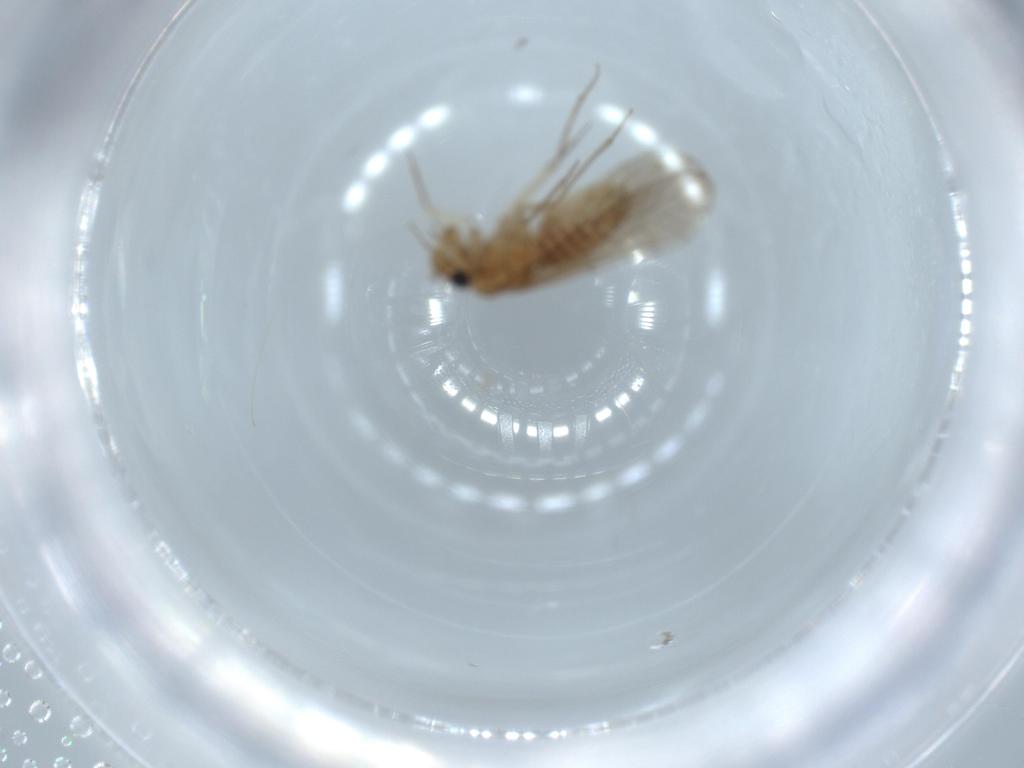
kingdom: Animalia
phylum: Arthropoda
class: Insecta
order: Psocodea
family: Lachesillidae
